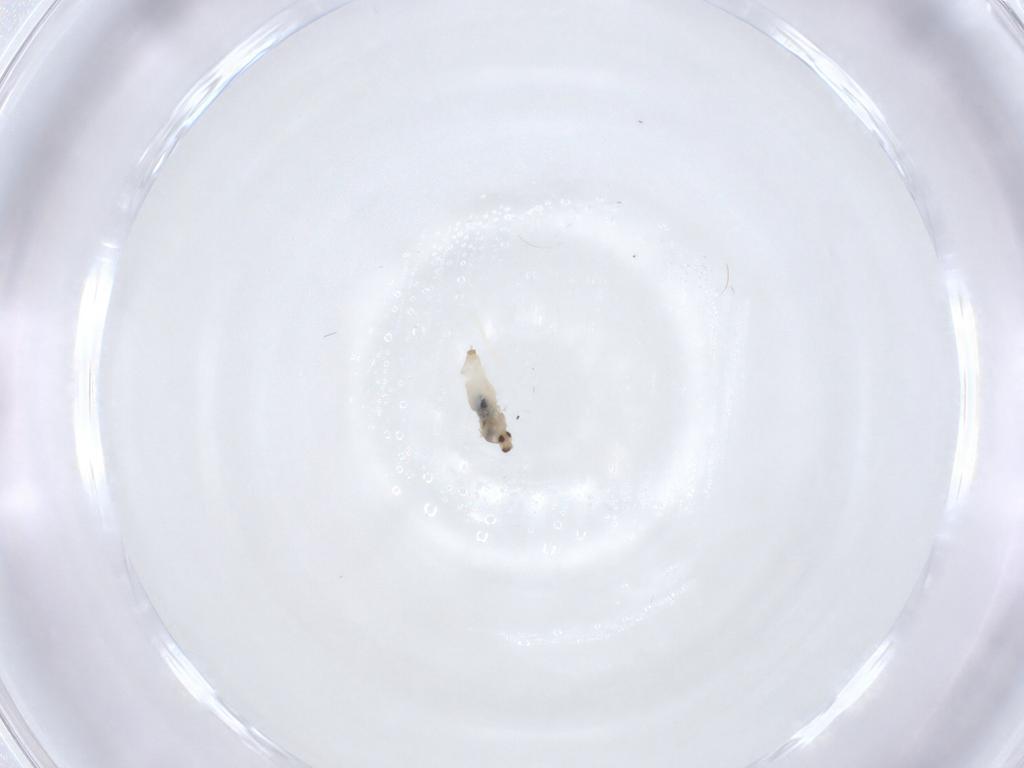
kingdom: Animalia
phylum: Arthropoda
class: Insecta
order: Diptera
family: Cecidomyiidae
